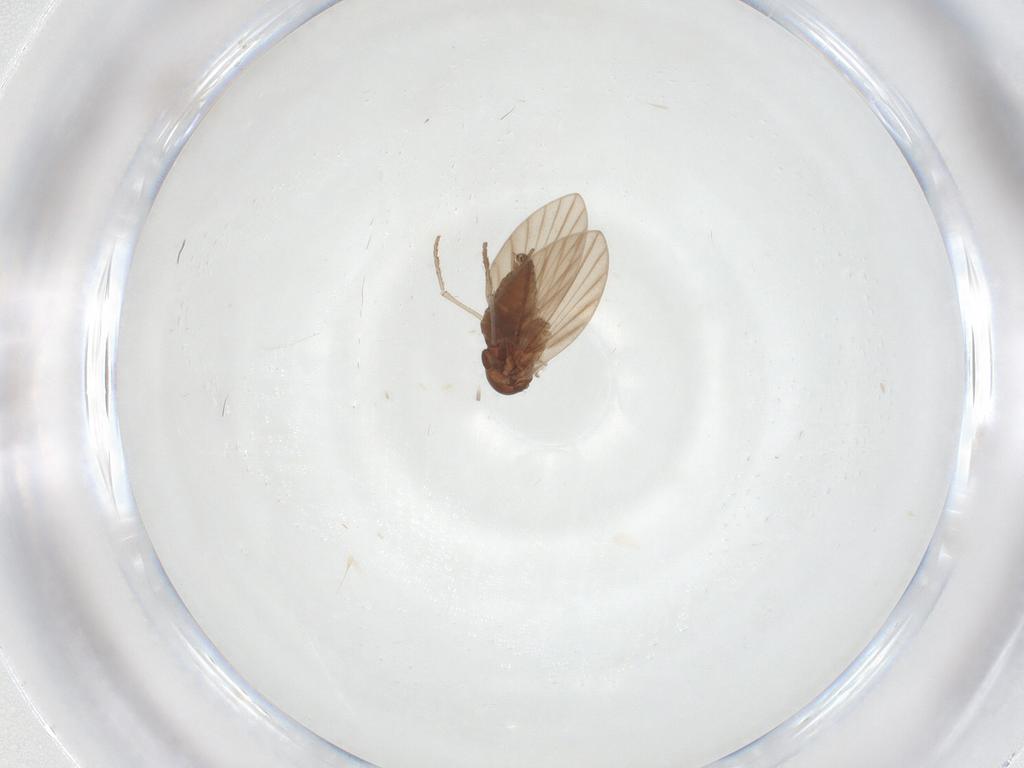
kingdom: Animalia
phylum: Arthropoda
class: Insecta
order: Diptera
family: Psychodidae
